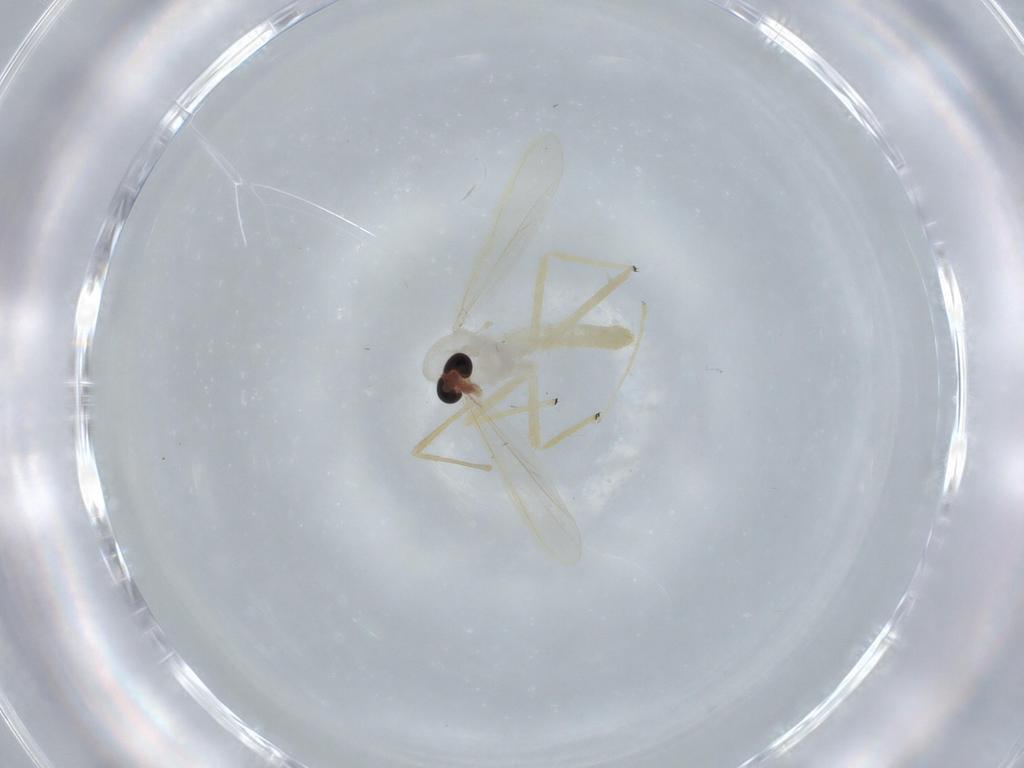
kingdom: Animalia
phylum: Arthropoda
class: Insecta
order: Diptera
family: Chironomidae
